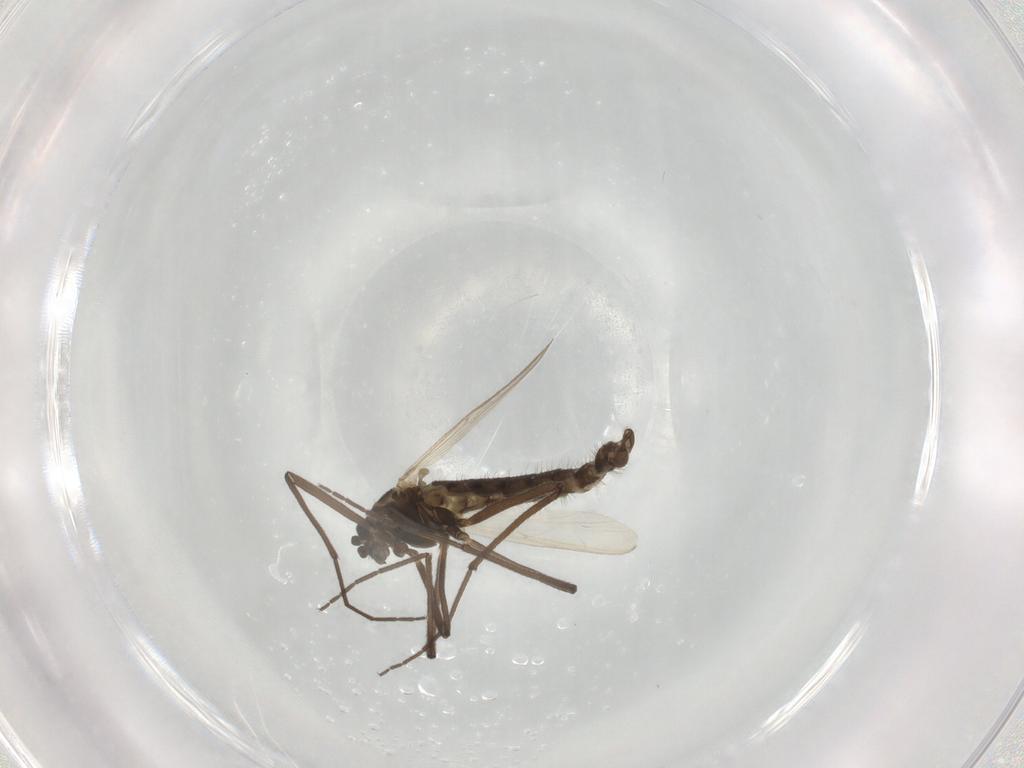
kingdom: Animalia
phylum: Arthropoda
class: Insecta
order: Diptera
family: Chironomidae
